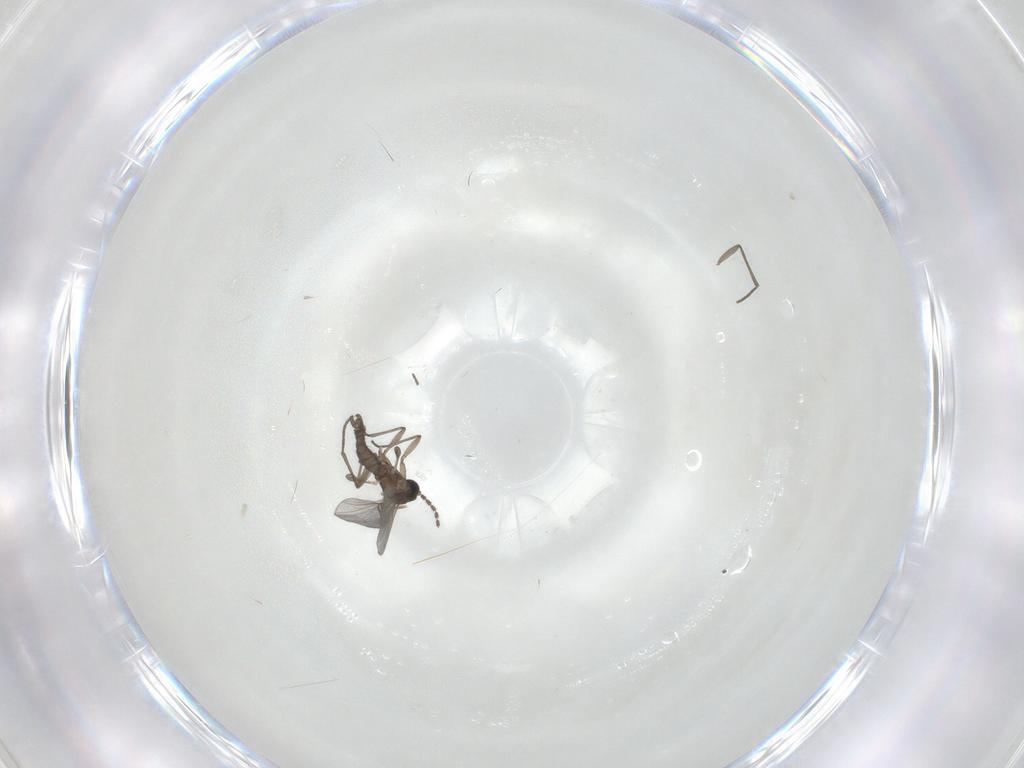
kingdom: Animalia
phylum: Arthropoda
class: Insecta
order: Diptera
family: Sciaridae
